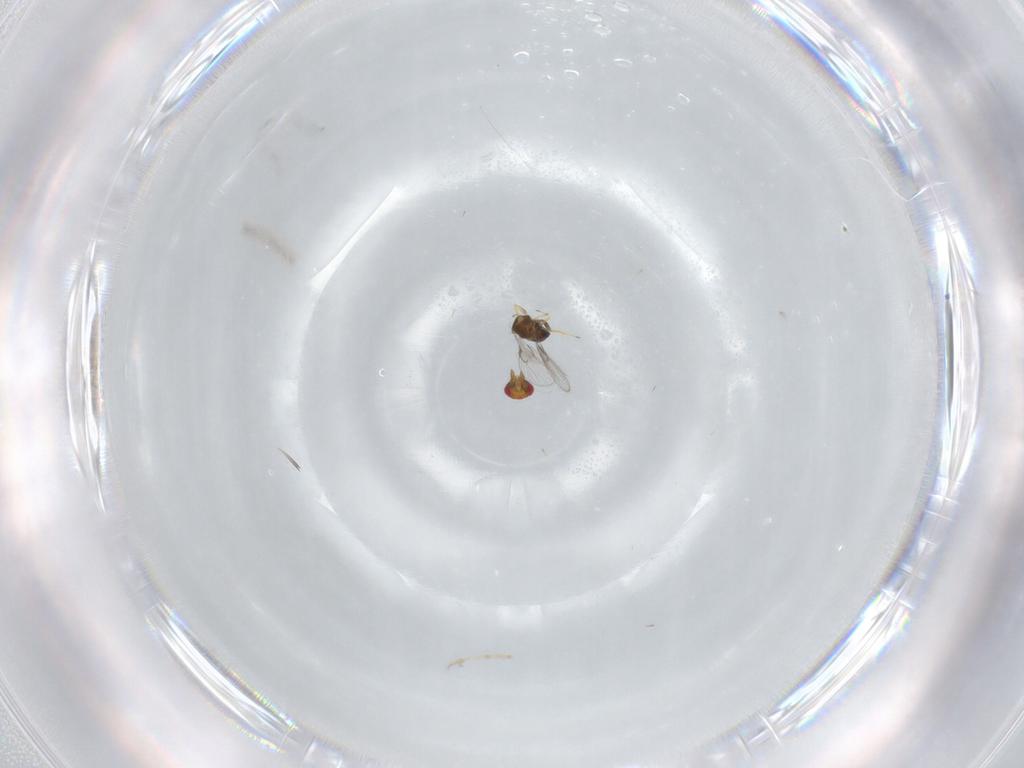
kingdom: Animalia
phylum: Arthropoda
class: Insecta
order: Hymenoptera
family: Trichogrammatidae
